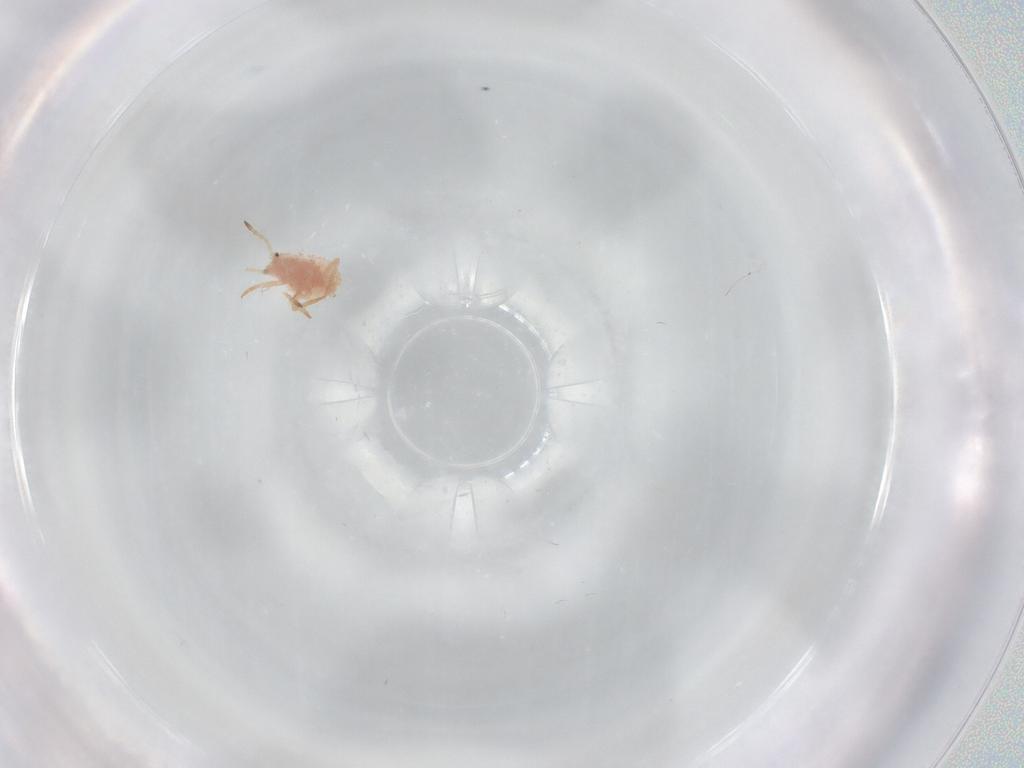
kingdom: Animalia
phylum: Arthropoda
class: Insecta
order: Hemiptera
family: Coccoidea_incertae_sedis
